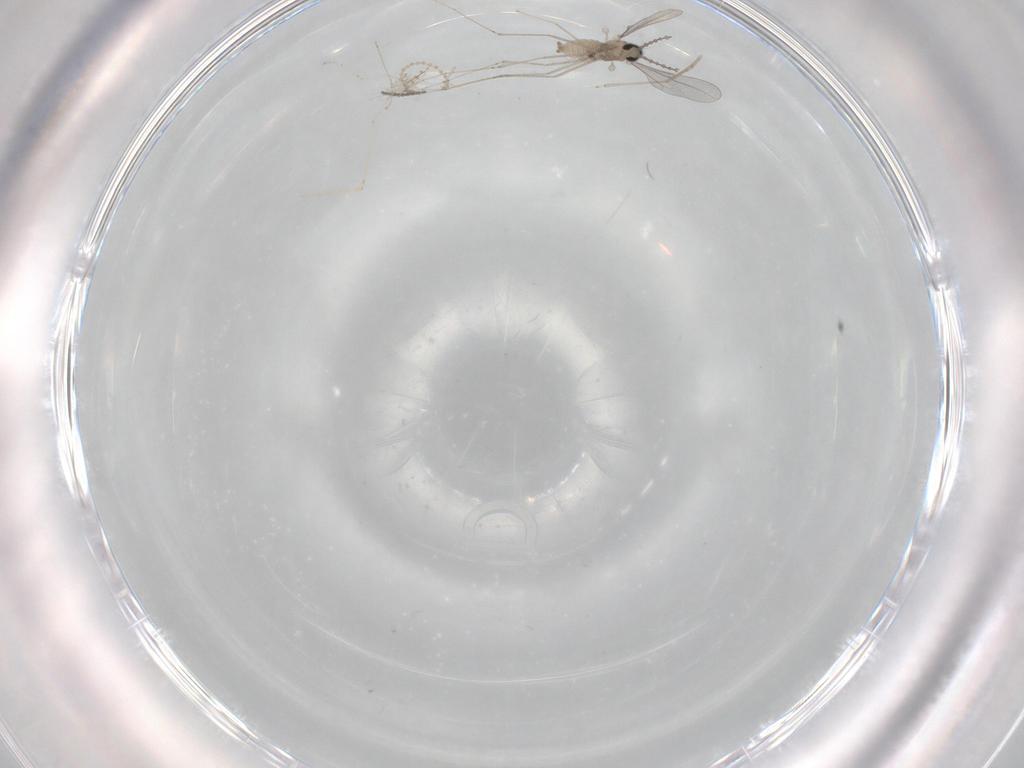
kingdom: Animalia
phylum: Arthropoda
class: Insecta
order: Diptera
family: Cecidomyiidae
